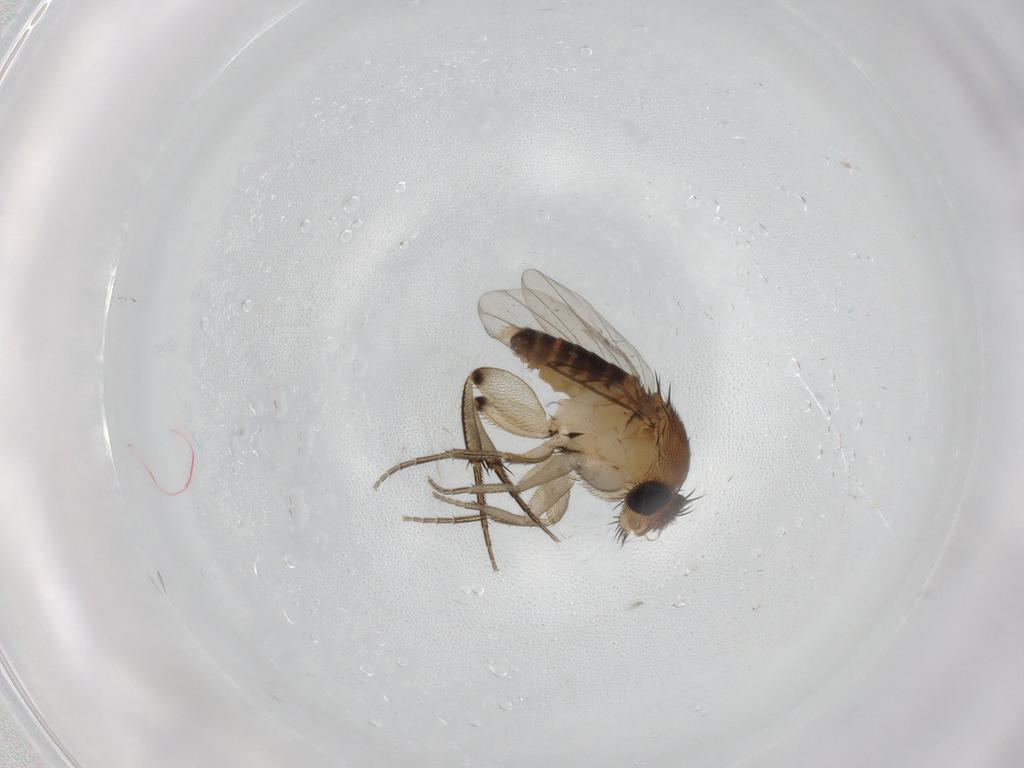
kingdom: Animalia
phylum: Arthropoda
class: Insecta
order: Diptera
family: Phoridae
